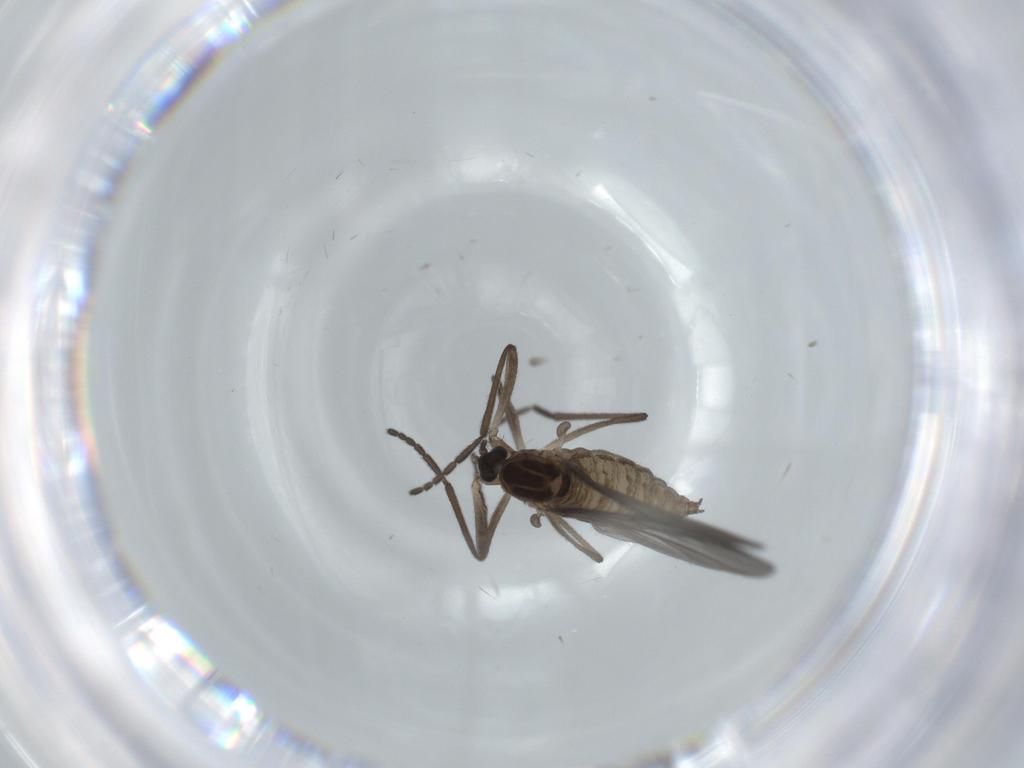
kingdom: Animalia
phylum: Arthropoda
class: Insecta
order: Diptera
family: Cecidomyiidae
